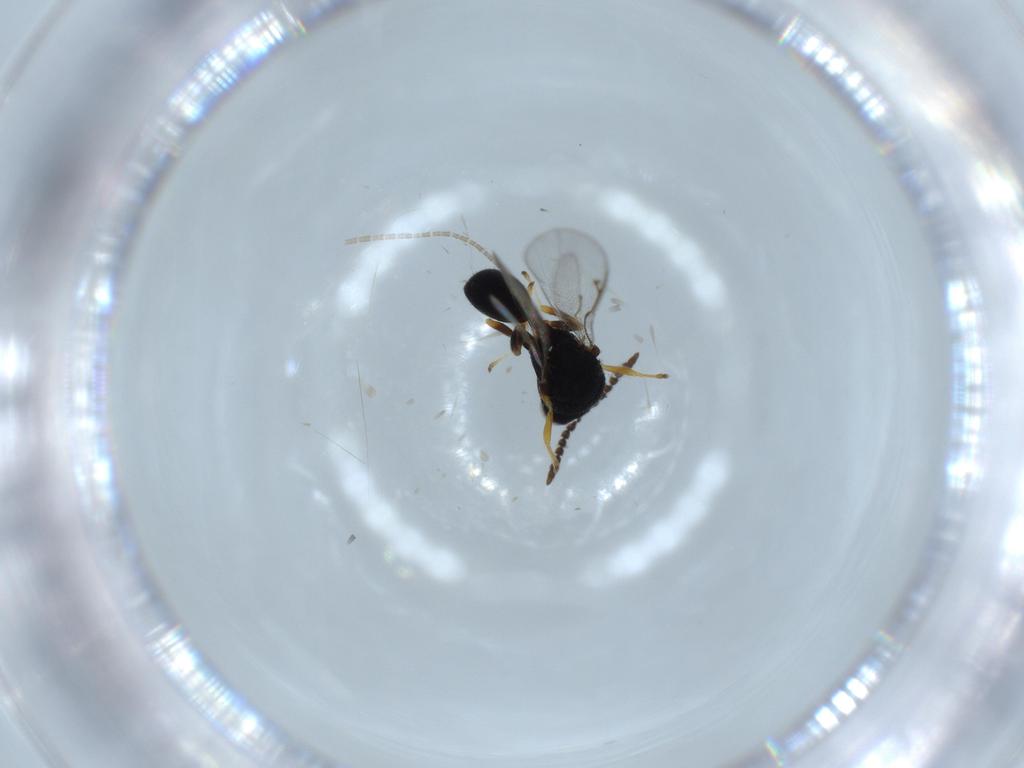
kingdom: Animalia
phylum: Arthropoda
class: Insecta
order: Hymenoptera
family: Eurytomidae
